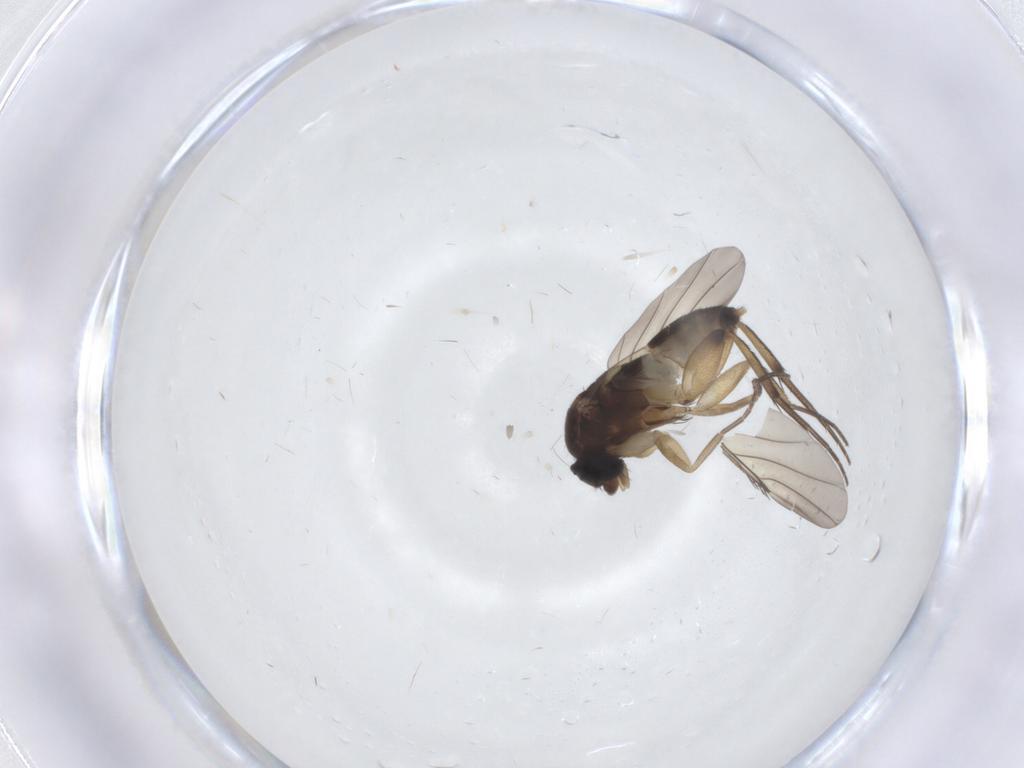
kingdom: Animalia
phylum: Arthropoda
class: Insecta
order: Diptera
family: Phoridae
